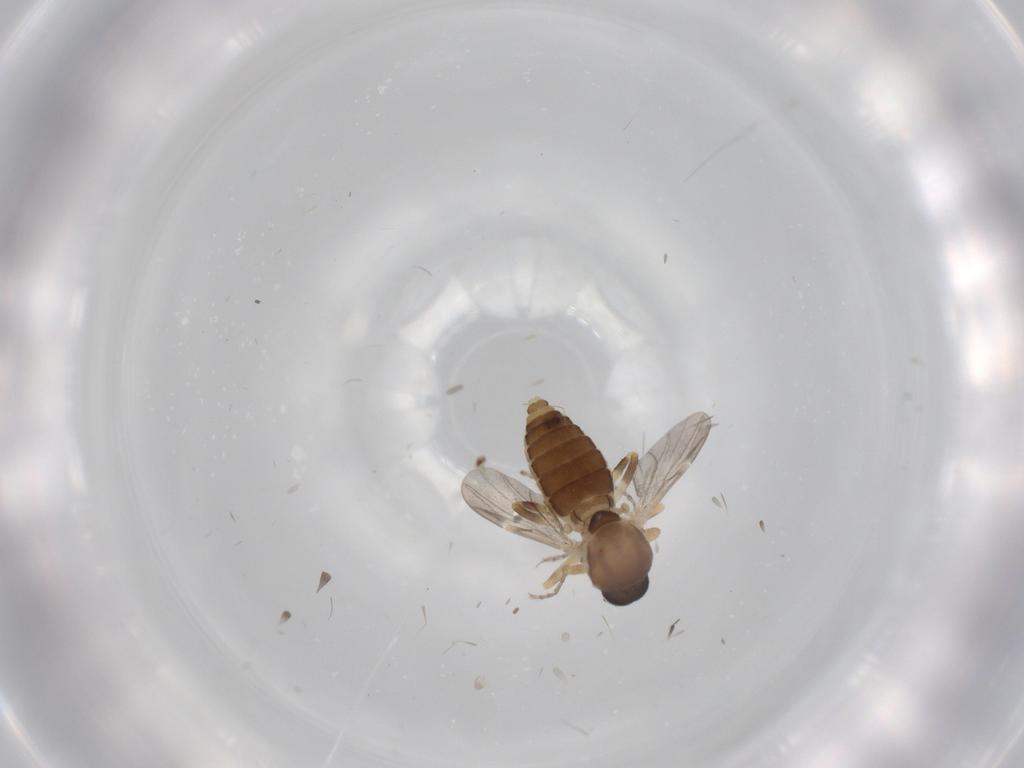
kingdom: Animalia
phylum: Arthropoda
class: Insecta
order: Diptera
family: Ceratopogonidae
